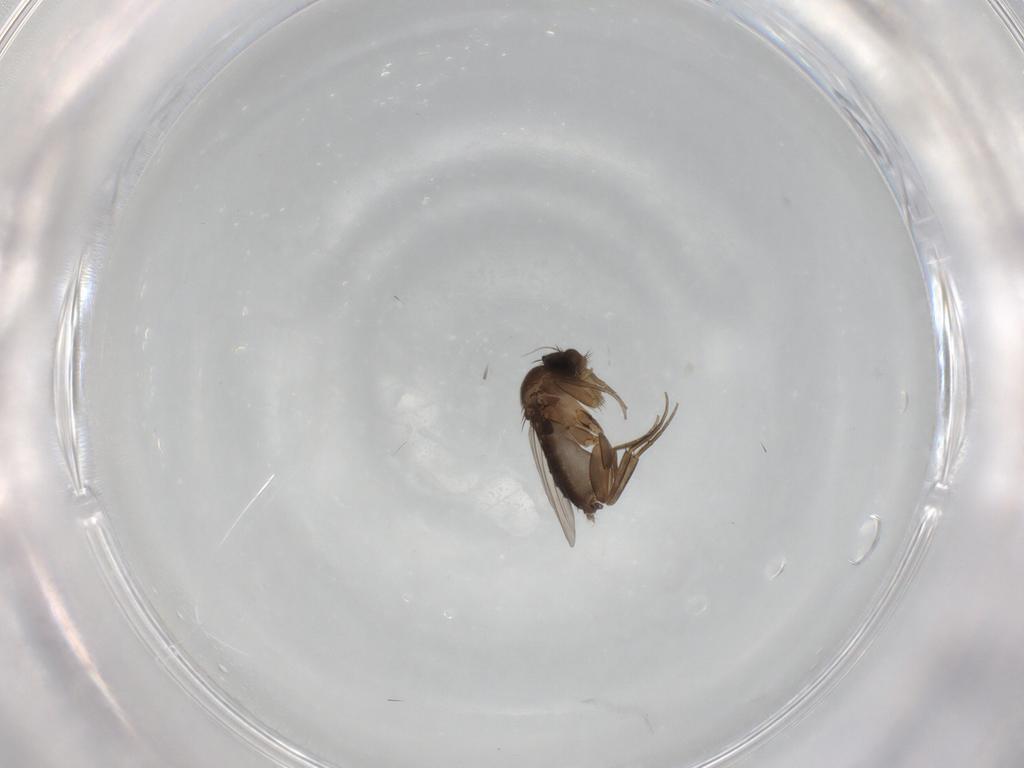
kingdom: Animalia
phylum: Arthropoda
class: Insecta
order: Diptera
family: Phoridae
